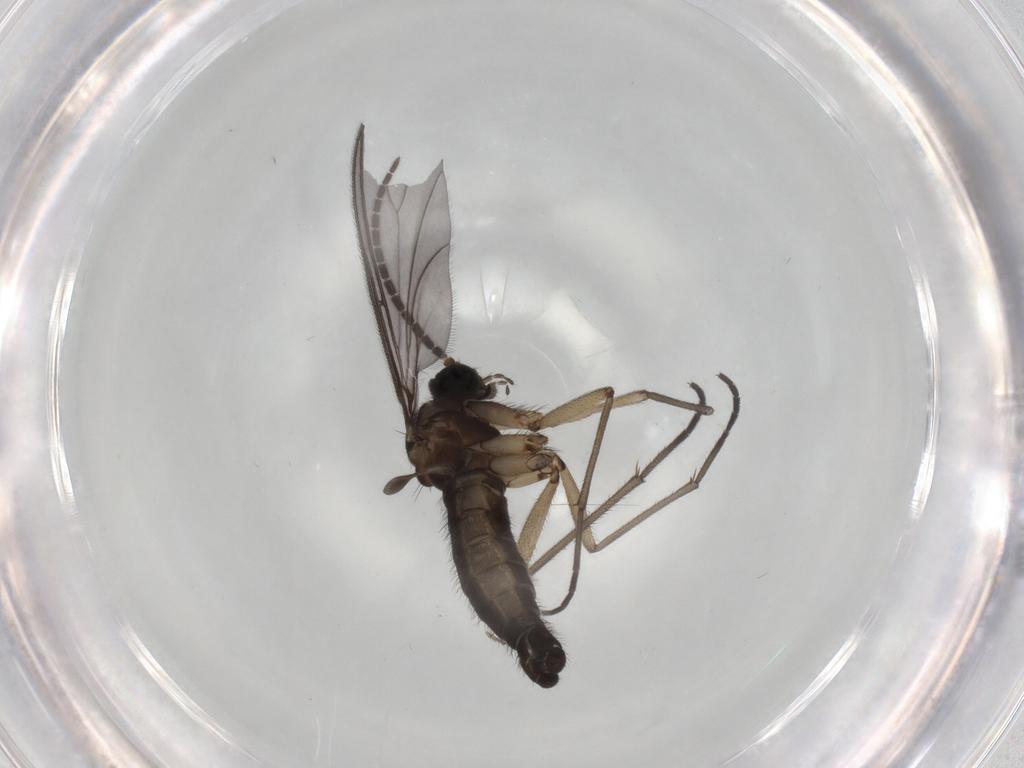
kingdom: Animalia
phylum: Arthropoda
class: Insecta
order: Diptera
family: Sciaridae
